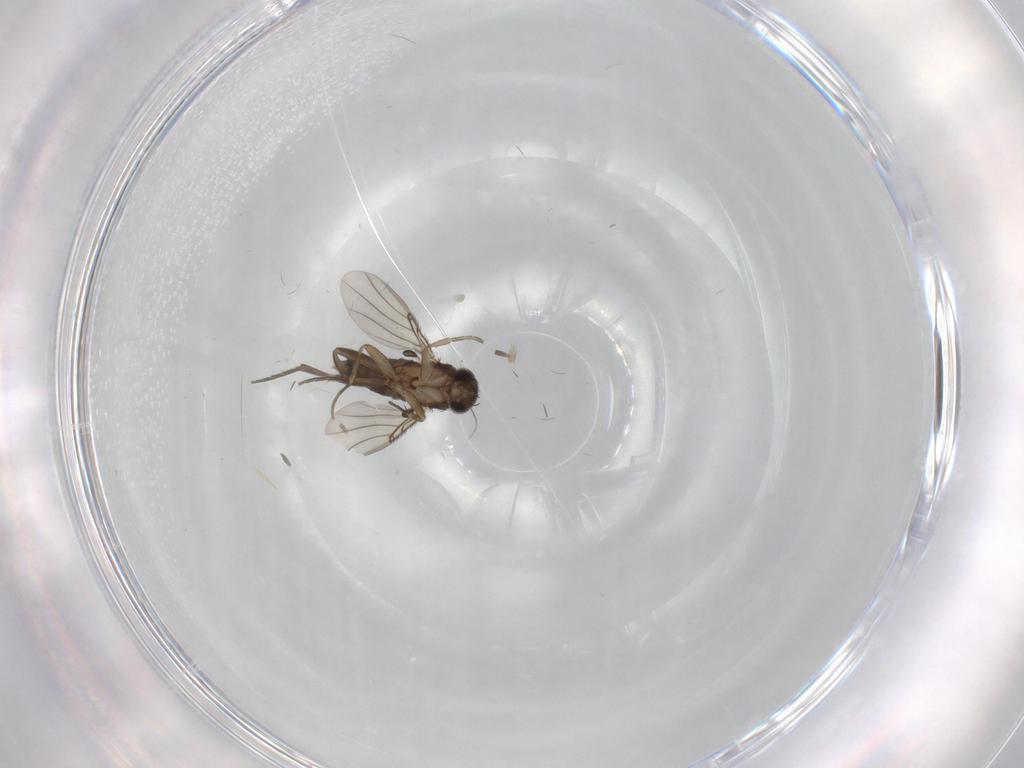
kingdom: Animalia
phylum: Arthropoda
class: Insecta
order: Diptera
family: Phoridae
